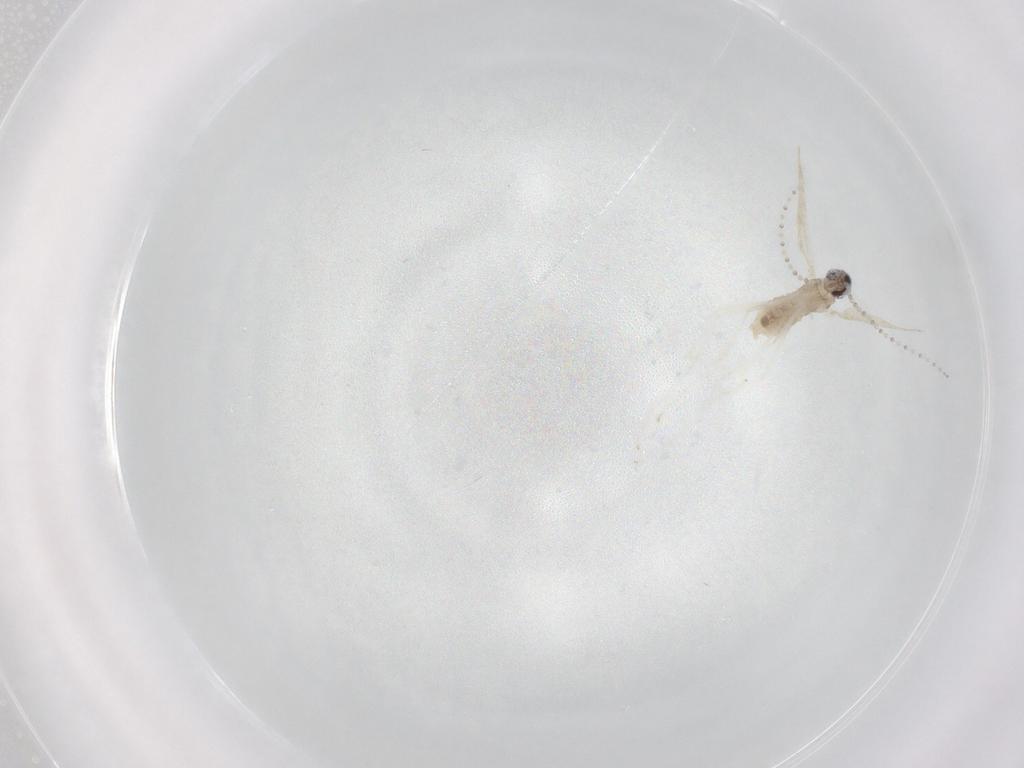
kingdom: Animalia
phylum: Arthropoda
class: Insecta
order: Diptera
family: Cecidomyiidae
